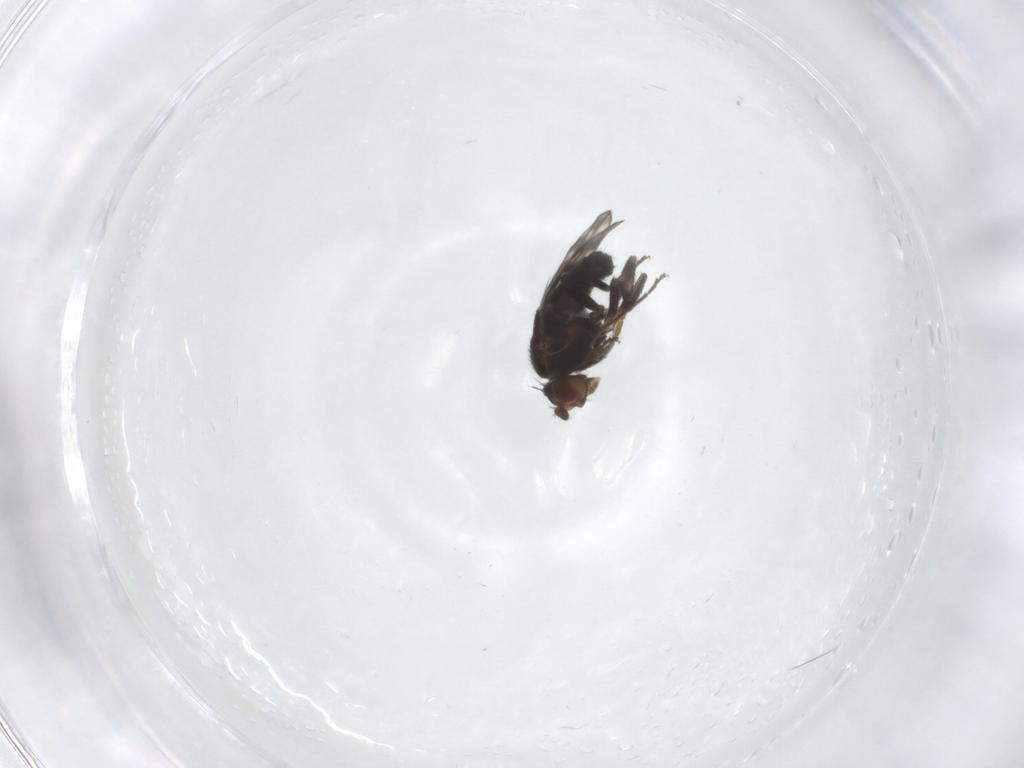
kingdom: Animalia
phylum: Arthropoda
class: Insecta
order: Diptera
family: Sphaeroceridae
